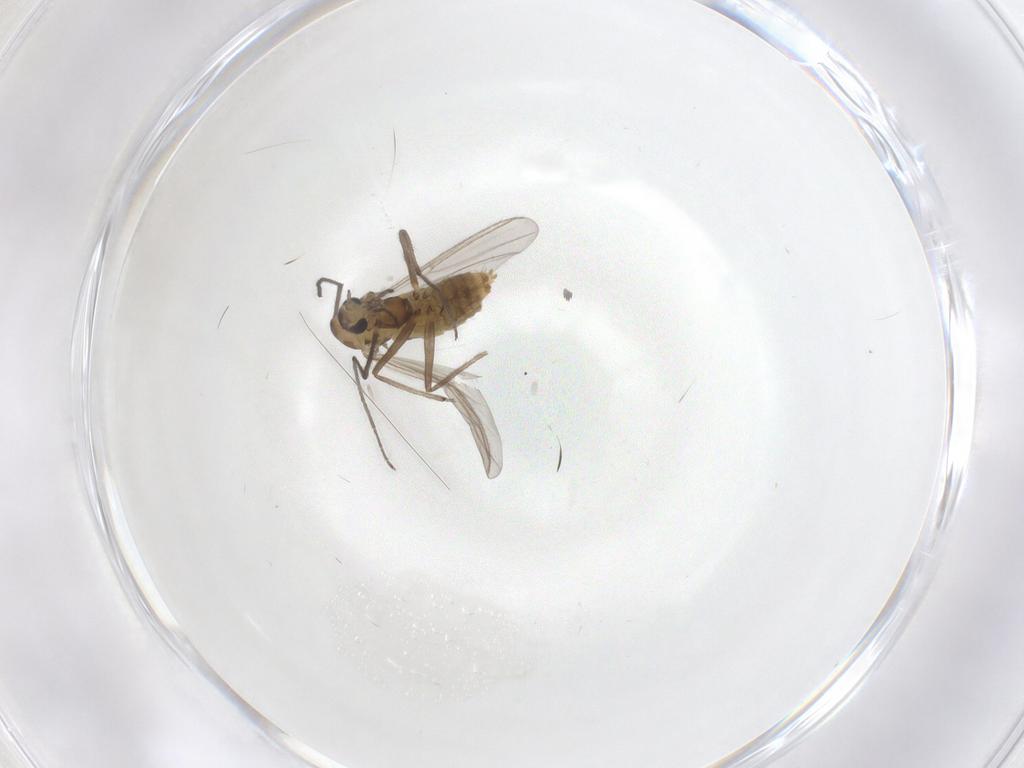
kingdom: Animalia
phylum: Arthropoda
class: Insecta
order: Diptera
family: Chironomidae
